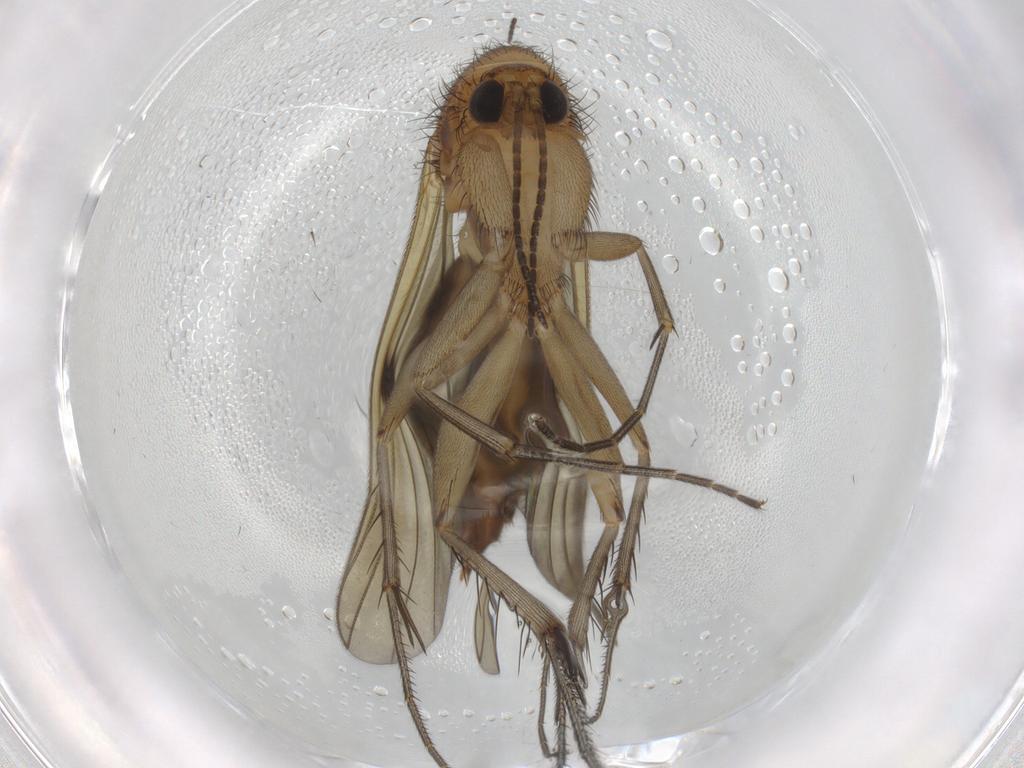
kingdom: Animalia
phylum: Arthropoda
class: Insecta
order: Diptera
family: Sciaridae
